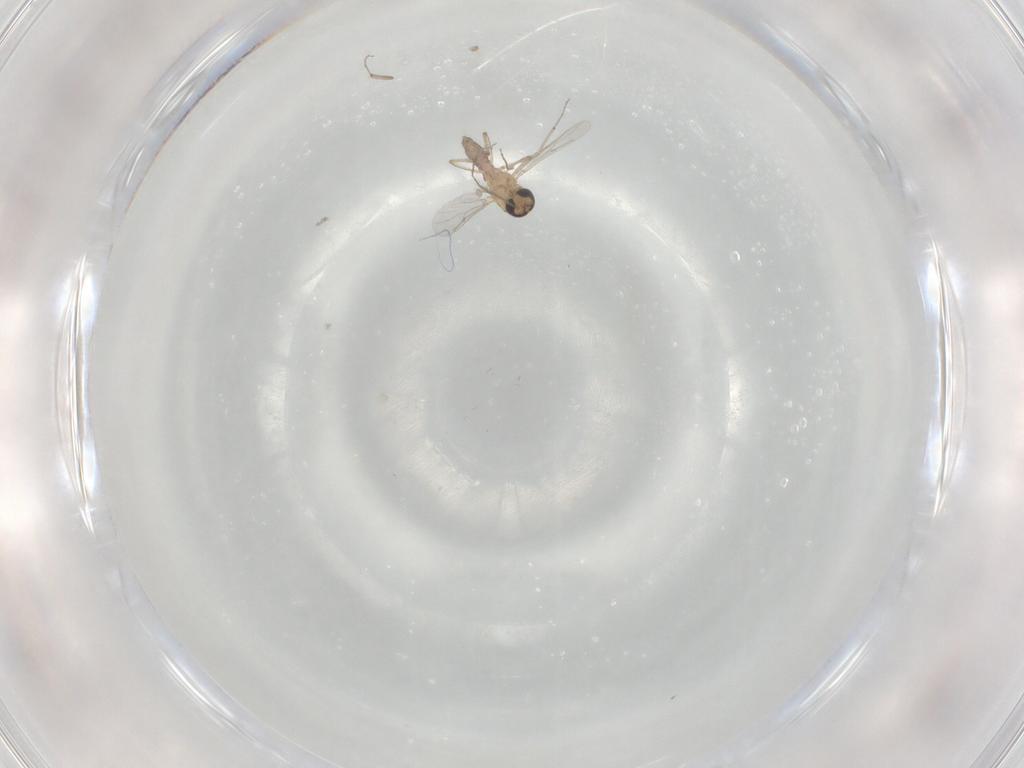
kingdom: Animalia
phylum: Arthropoda
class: Insecta
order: Diptera
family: Ceratopogonidae
